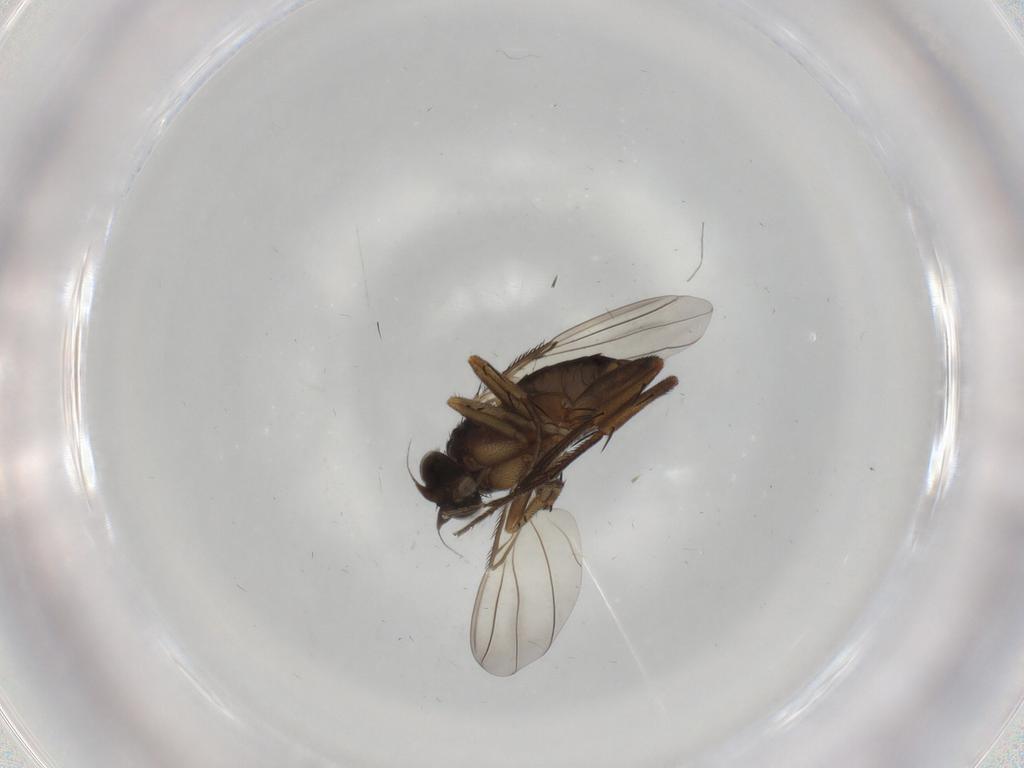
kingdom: Animalia
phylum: Arthropoda
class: Insecta
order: Diptera
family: Phoridae
